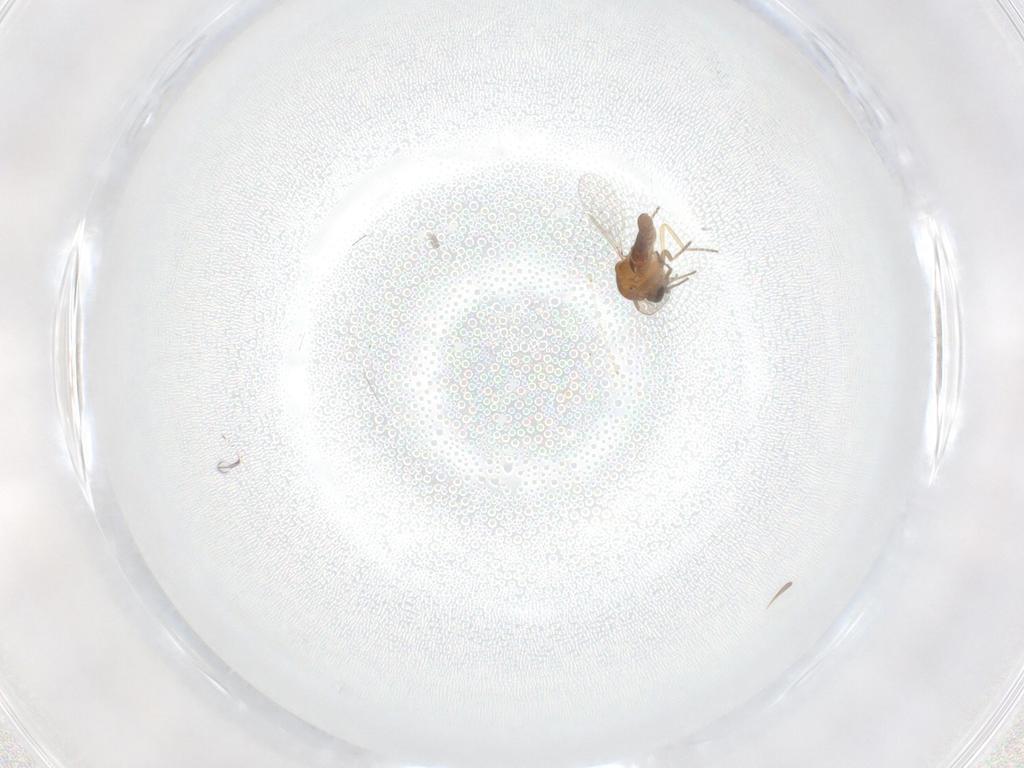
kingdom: Animalia
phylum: Arthropoda
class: Insecta
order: Diptera
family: Ceratopogonidae
